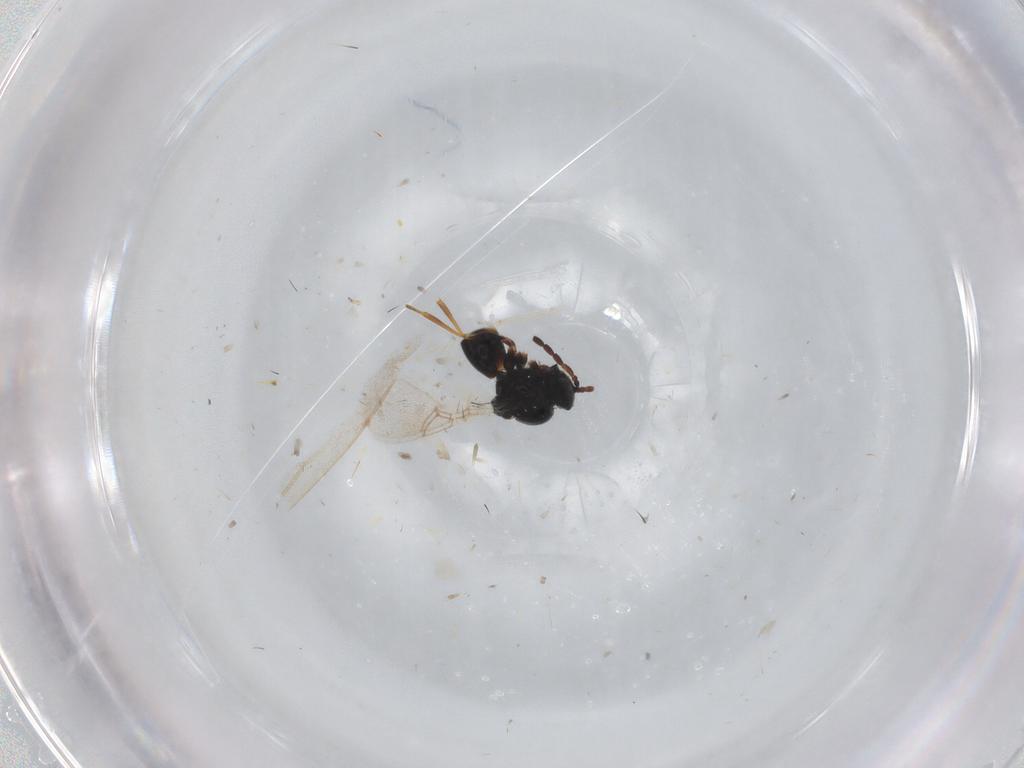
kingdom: Animalia
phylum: Arthropoda
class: Insecta
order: Hymenoptera
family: Figitidae
